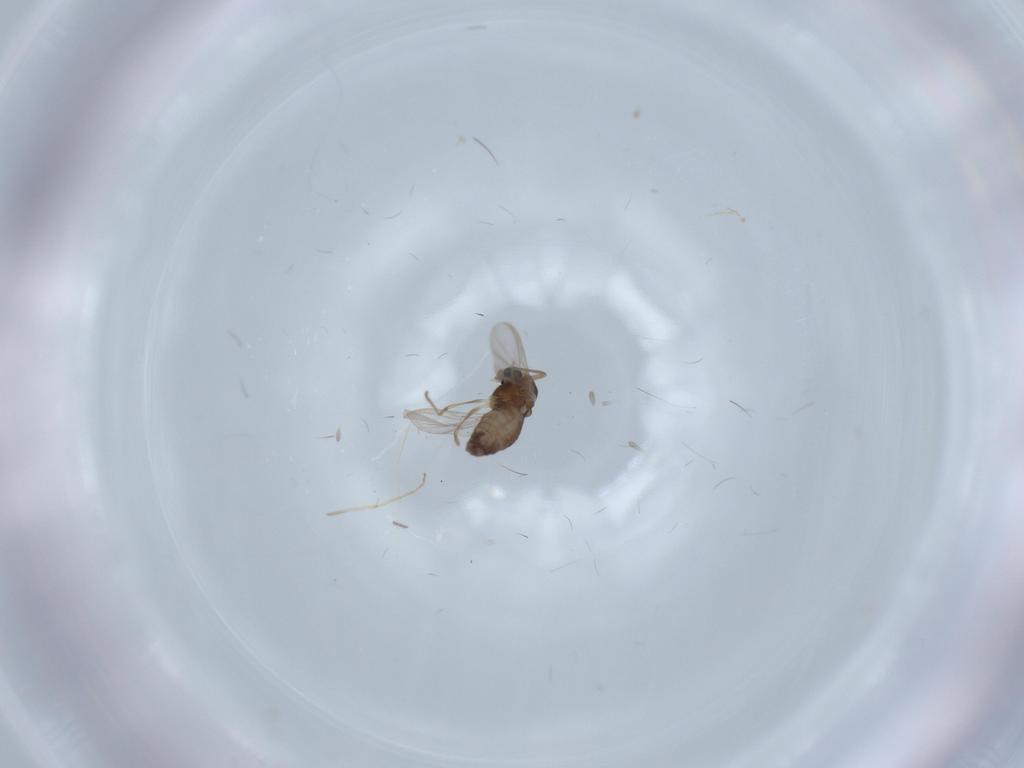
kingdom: Animalia
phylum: Arthropoda
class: Insecta
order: Diptera
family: Chironomidae
